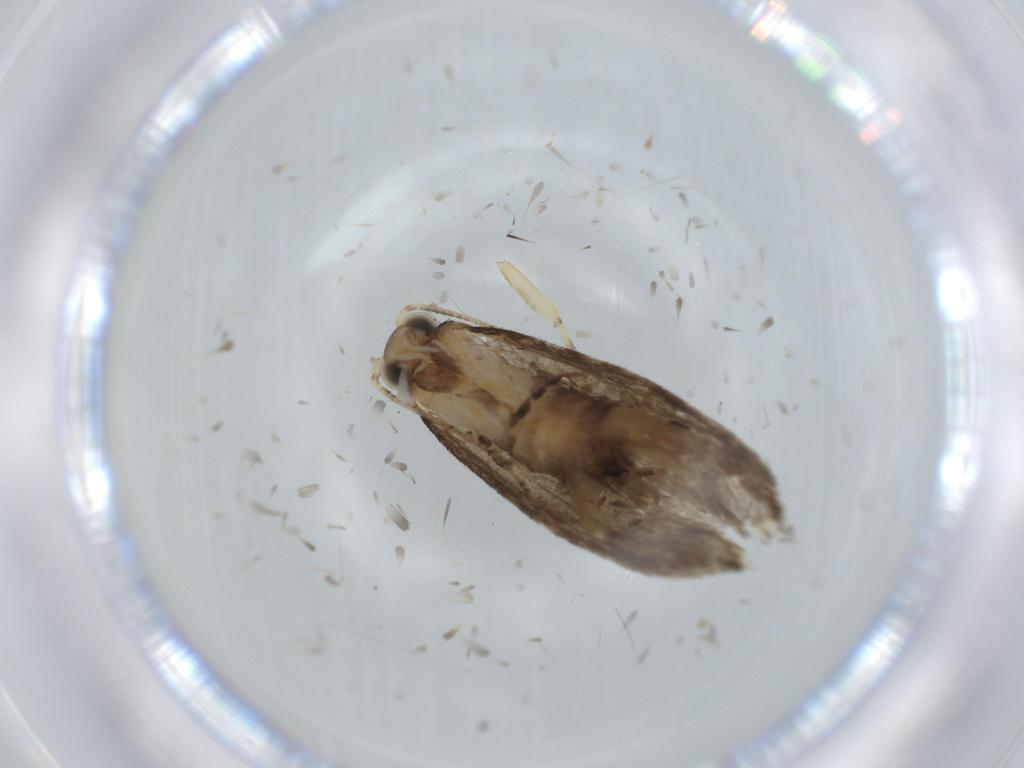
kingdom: Animalia
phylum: Arthropoda
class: Insecta
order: Lepidoptera
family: Tineidae
